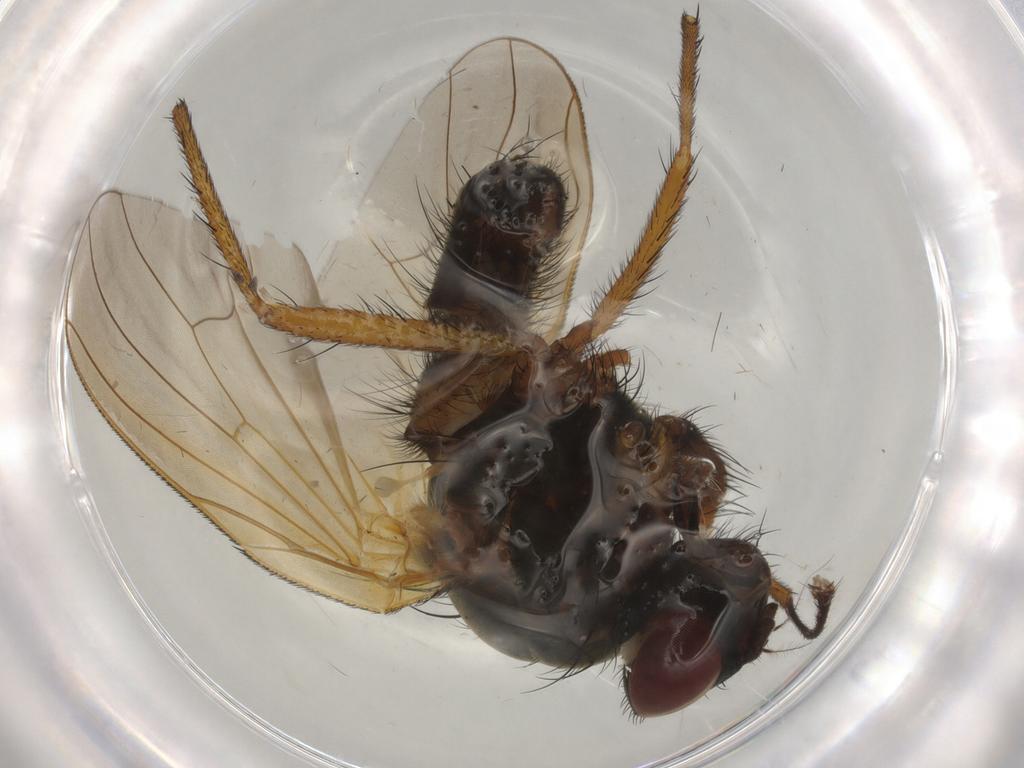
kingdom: Animalia
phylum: Arthropoda
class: Insecta
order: Diptera
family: Anthomyiidae
